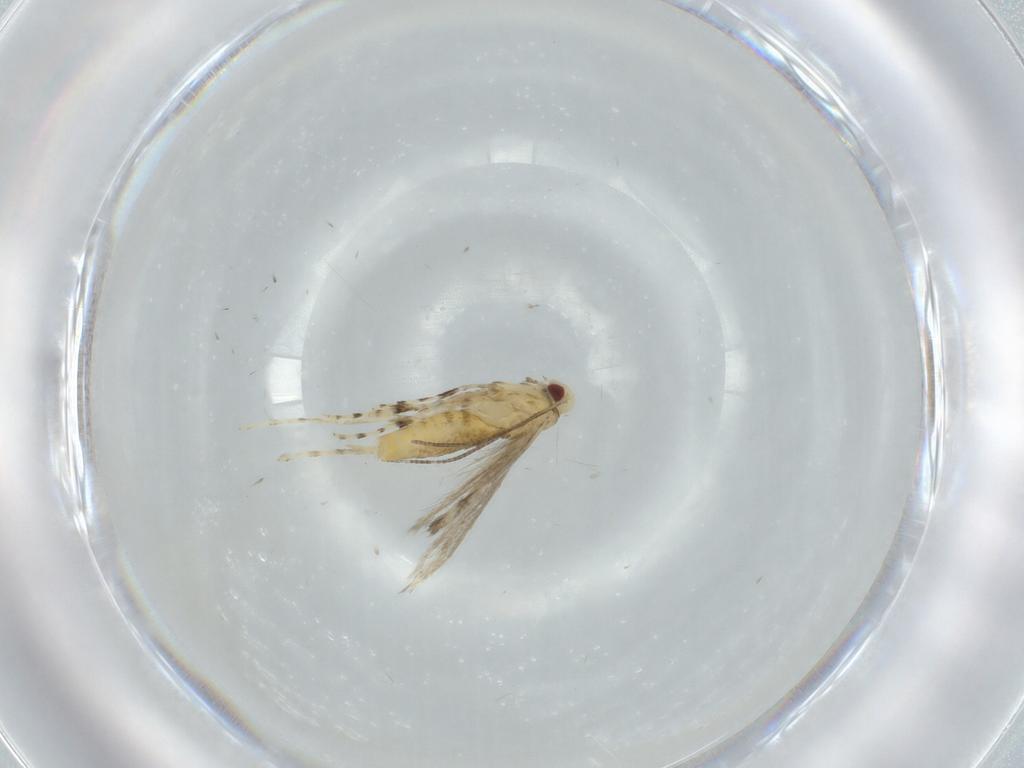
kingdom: Animalia
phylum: Arthropoda
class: Insecta
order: Lepidoptera
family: Gracillariidae
